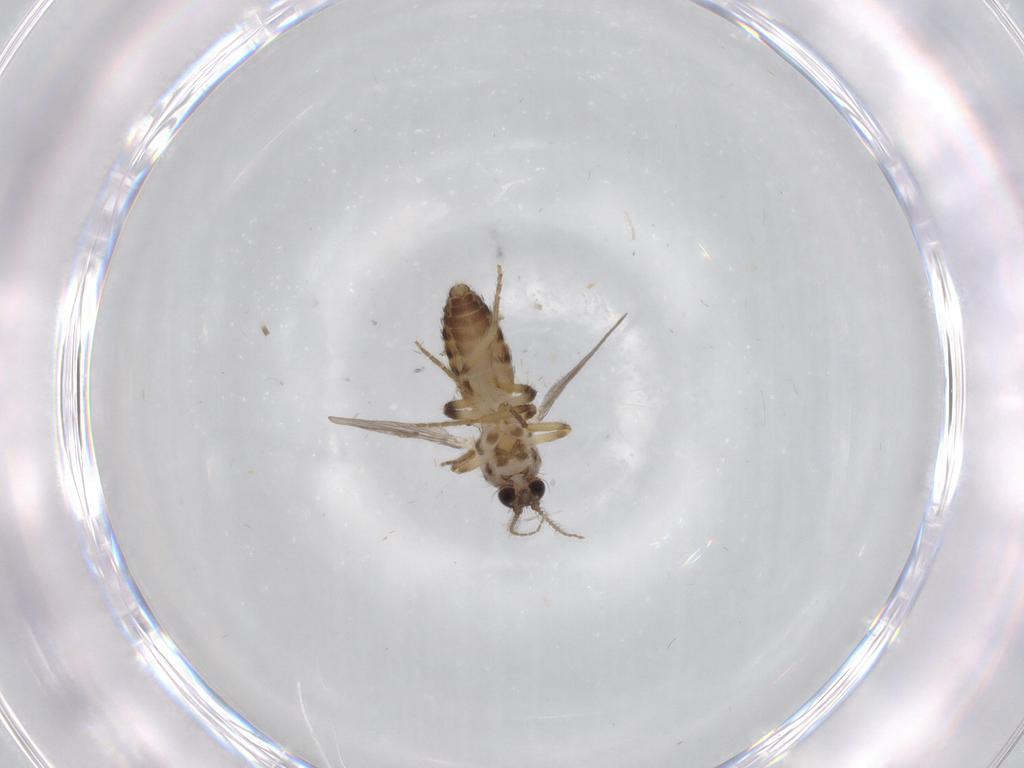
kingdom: Animalia
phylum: Arthropoda
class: Insecta
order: Diptera
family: Ceratopogonidae
